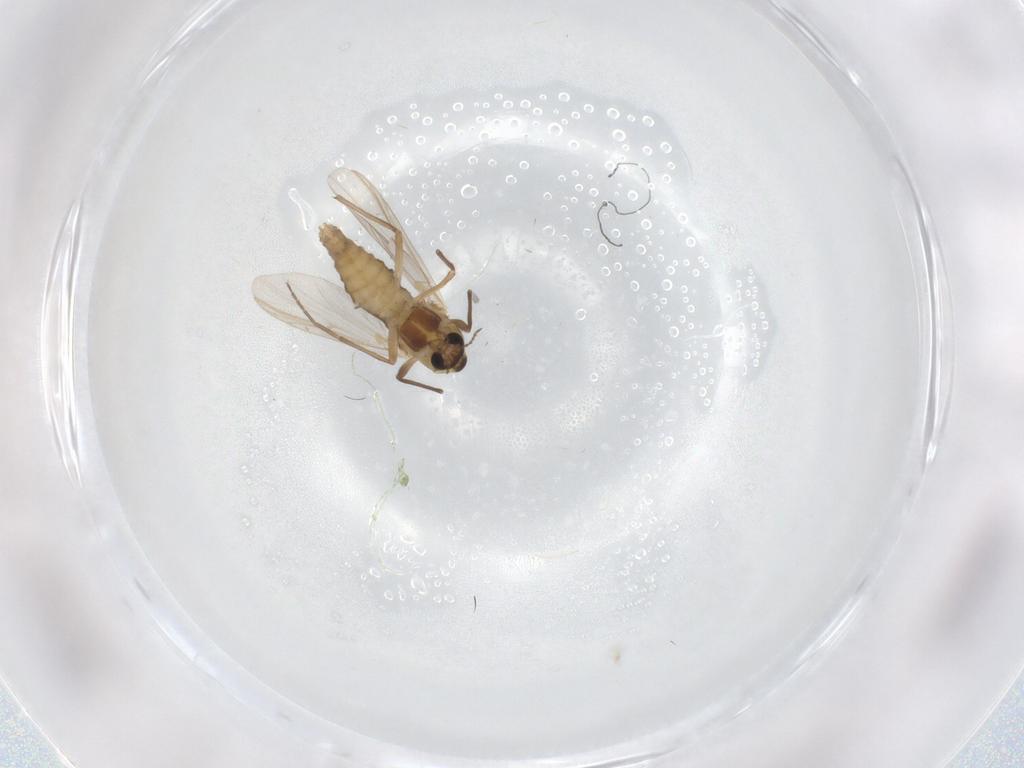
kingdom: Animalia
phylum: Arthropoda
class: Insecta
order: Diptera
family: Chironomidae
